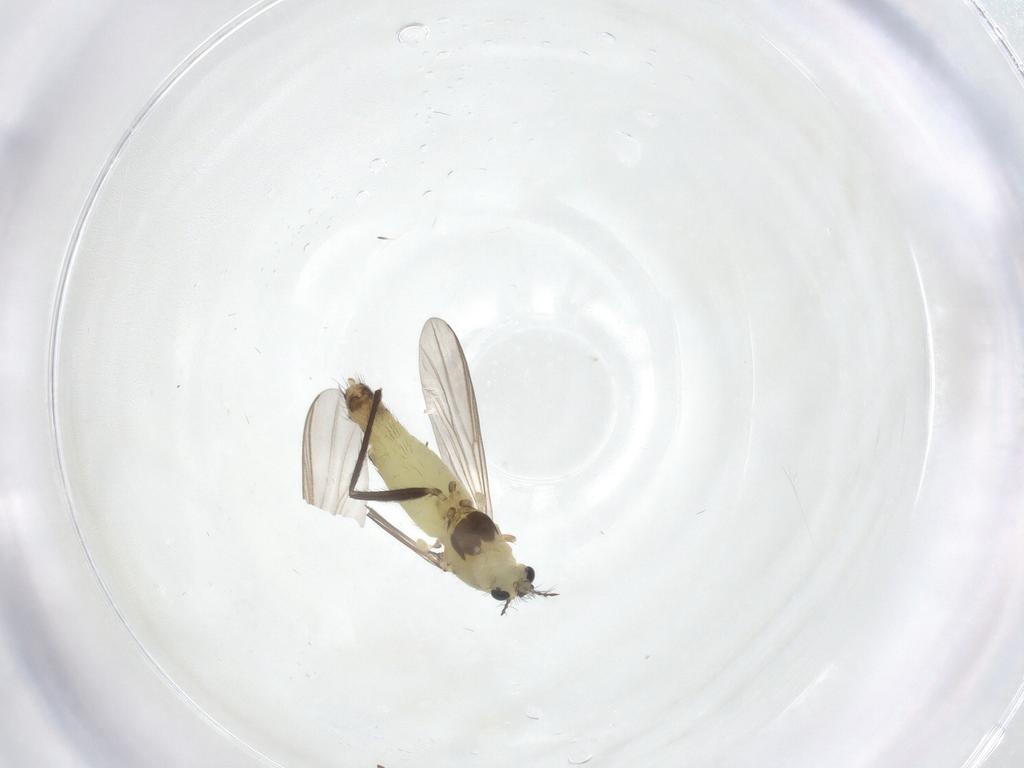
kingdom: Animalia
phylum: Arthropoda
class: Insecta
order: Diptera
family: Chironomidae
